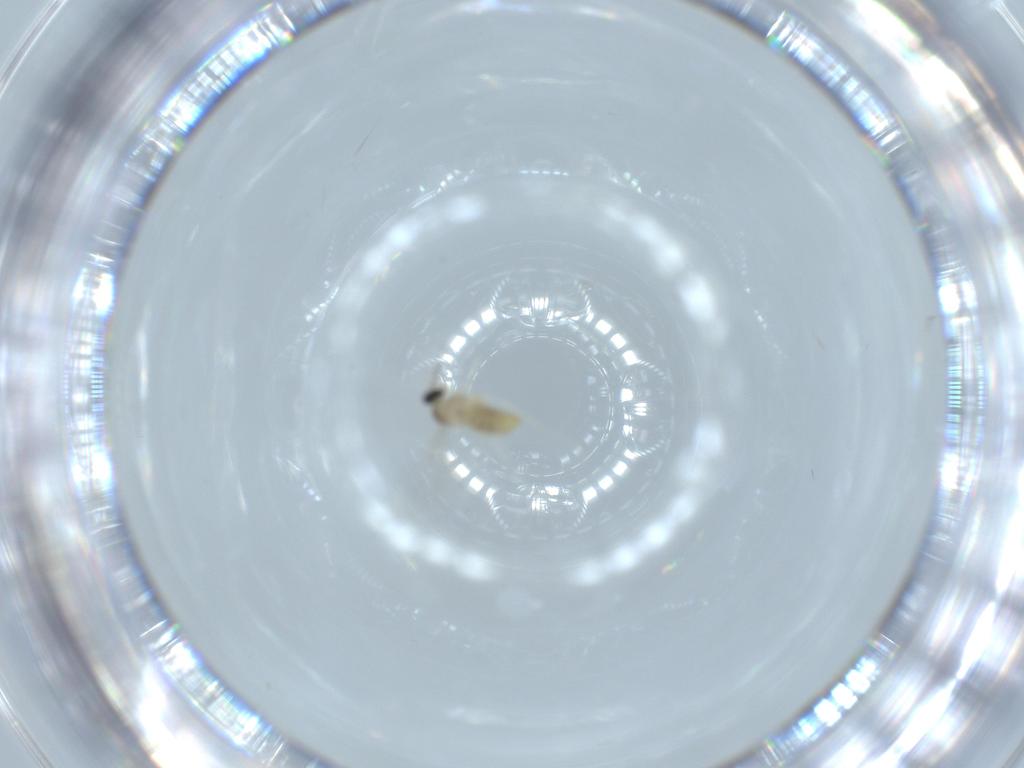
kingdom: Animalia
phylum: Arthropoda
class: Insecta
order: Diptera
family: Cecidomyiidae
